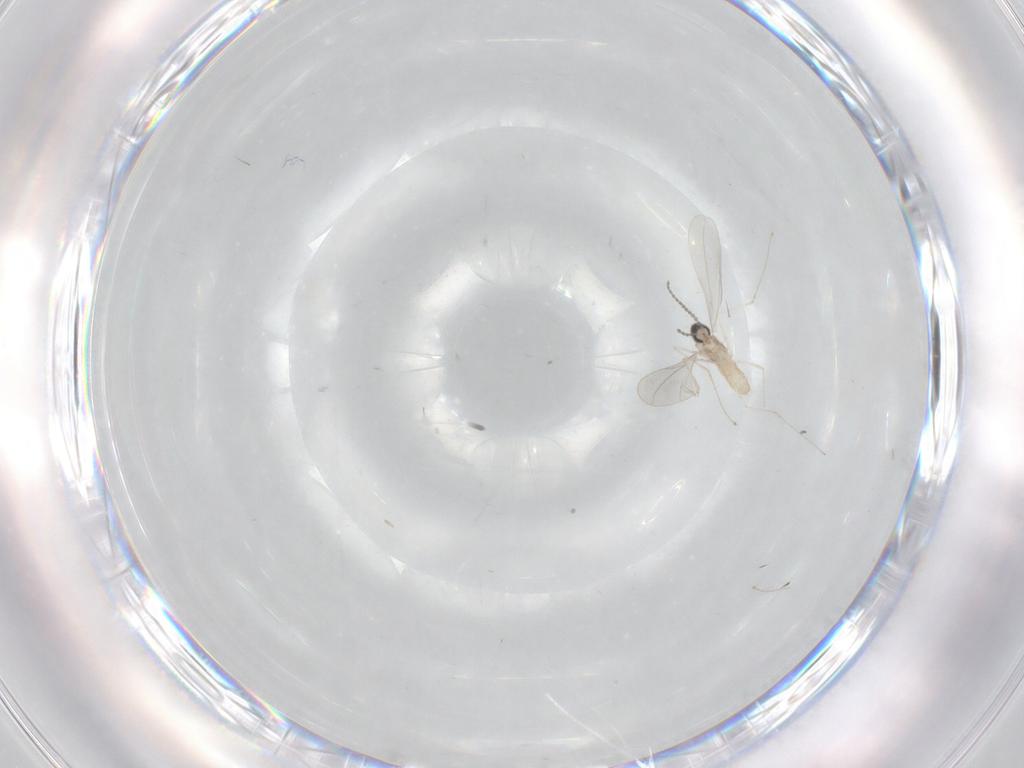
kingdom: Animalia
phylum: Arthropoda
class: Insecta
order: Diptera
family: Cecidomyiidae
